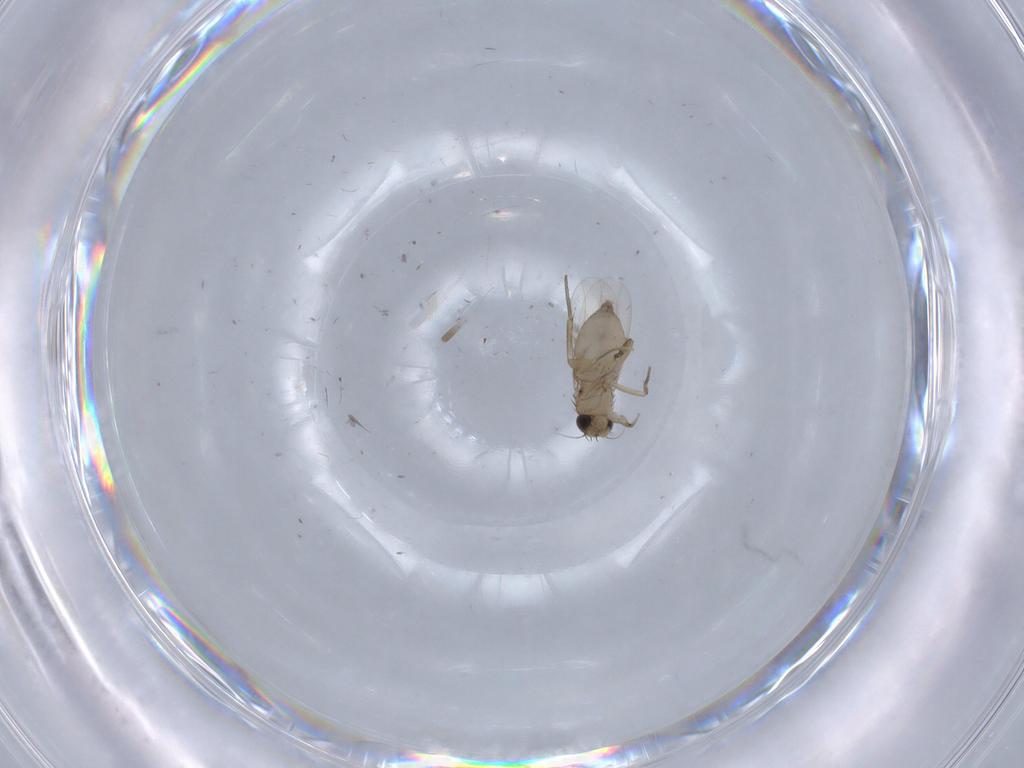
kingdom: Animalia
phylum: Arthropoda
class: Insecta
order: Diptera
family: Phoridae
